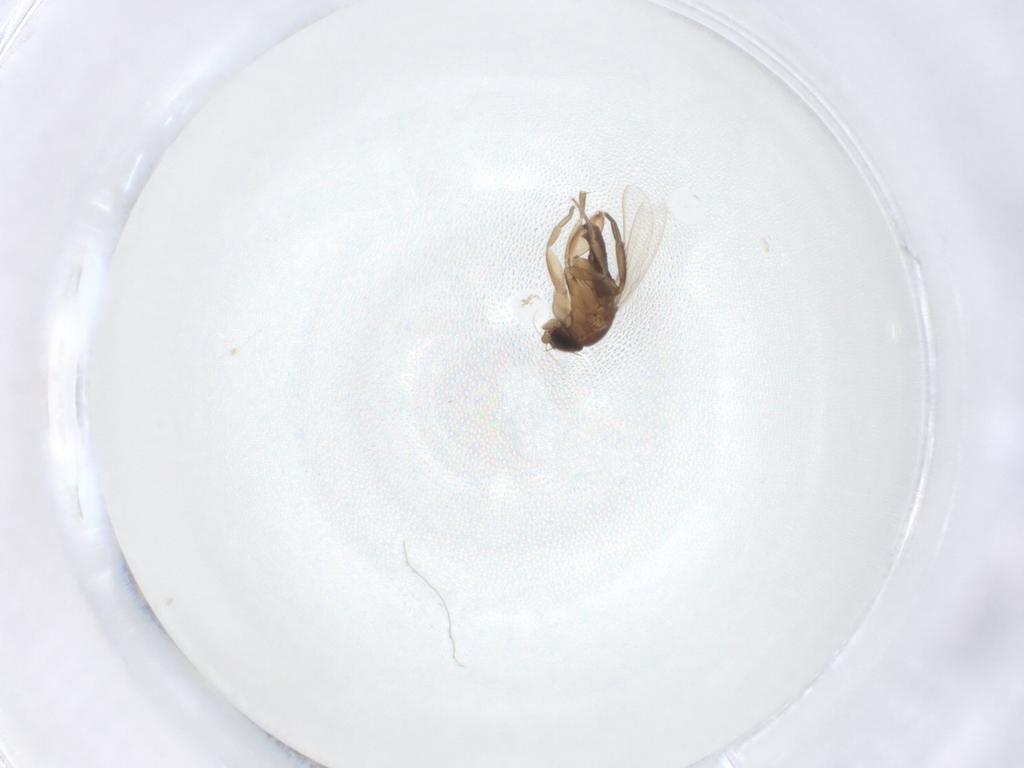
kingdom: Animalia
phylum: Arthropoda
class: Insecta
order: Diptera
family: Phoridae
